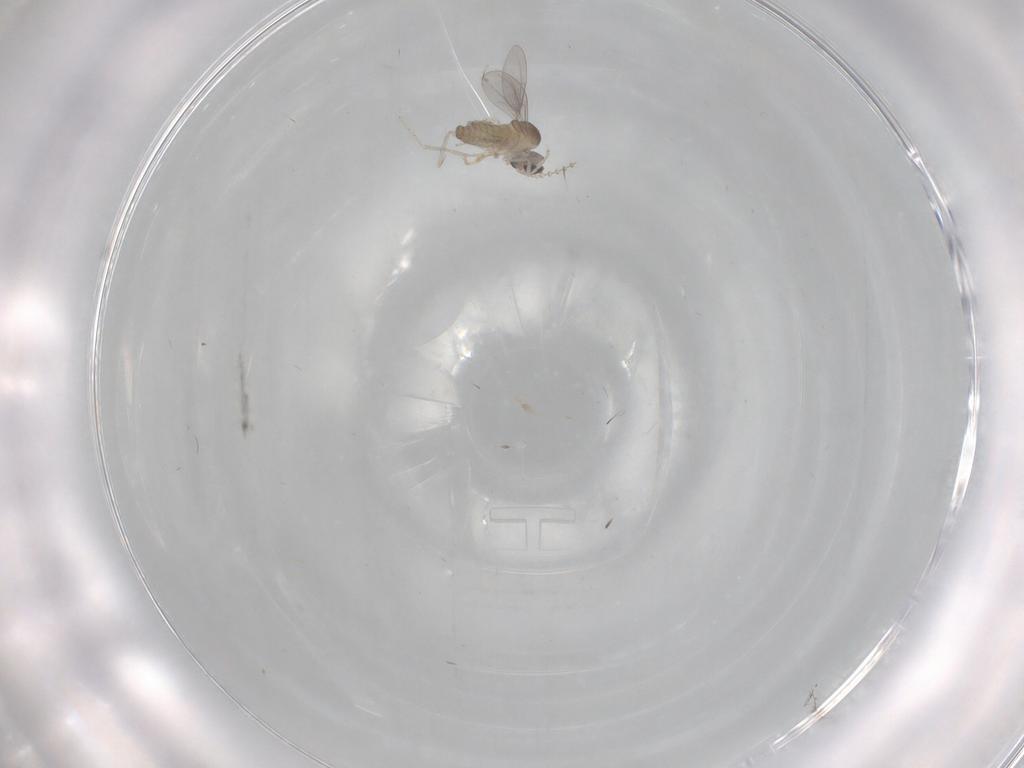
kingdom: Animalia
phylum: Arthropoda
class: Insecta
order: Diptera
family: Cecidomyiidae
